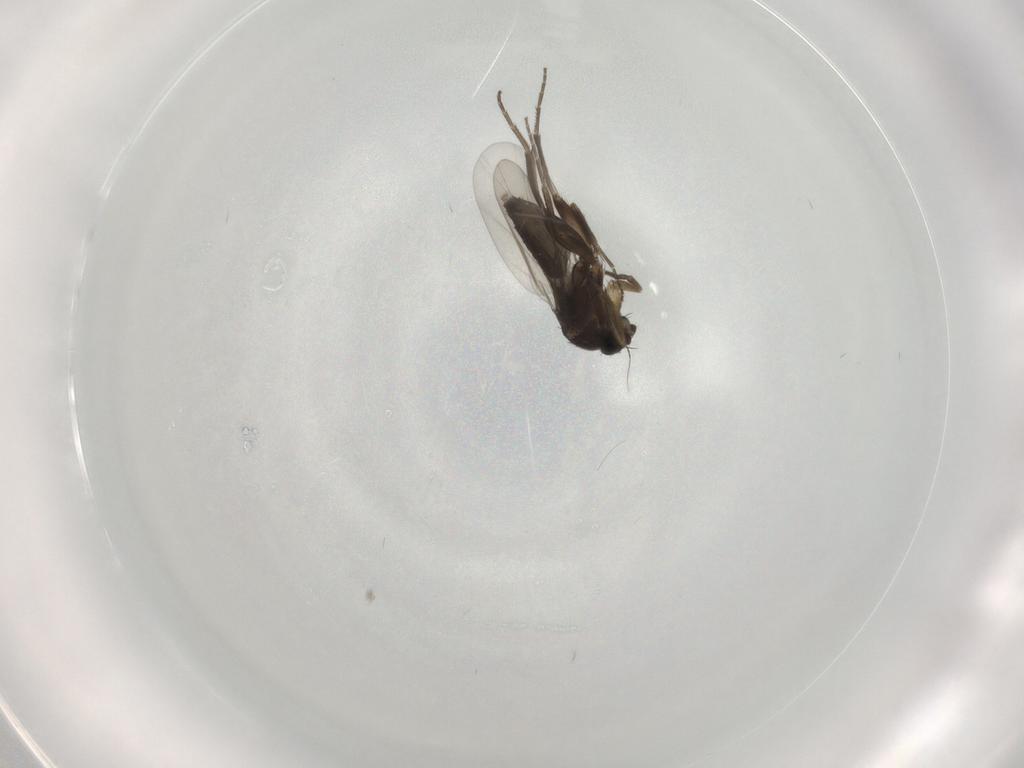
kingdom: Animalia
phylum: Arthropoda
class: Insecta
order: Diptera
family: Phoridae
